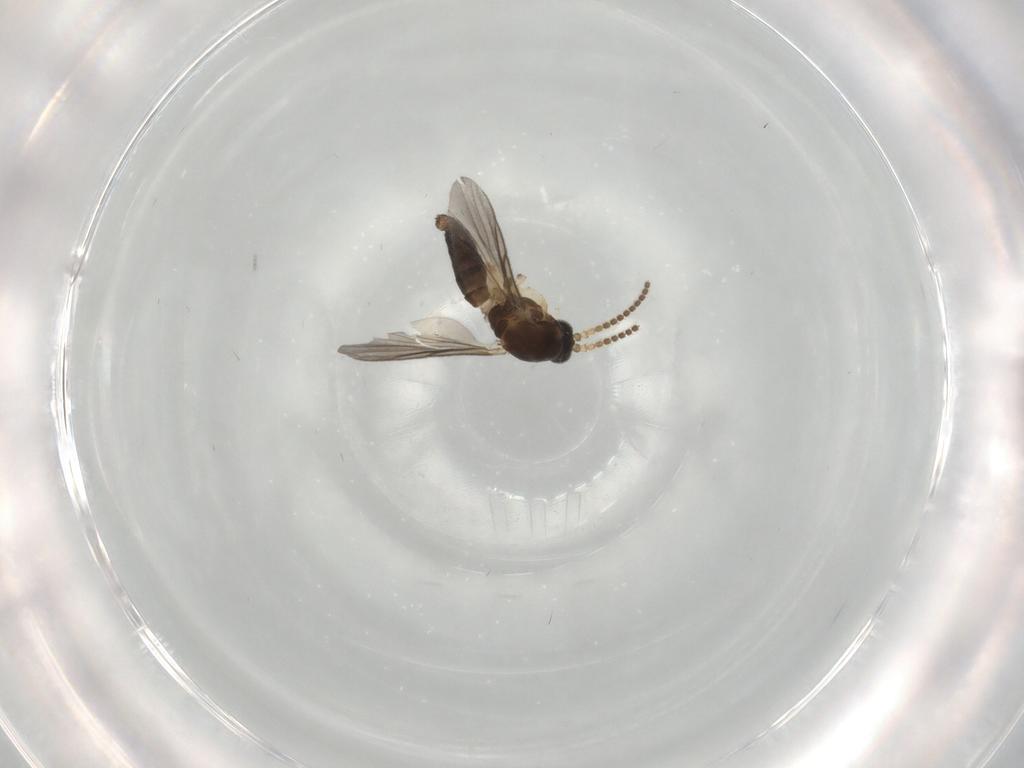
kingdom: Animalia
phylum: Arthropoda
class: Insecta
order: Diptera
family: Mycetophilidae
